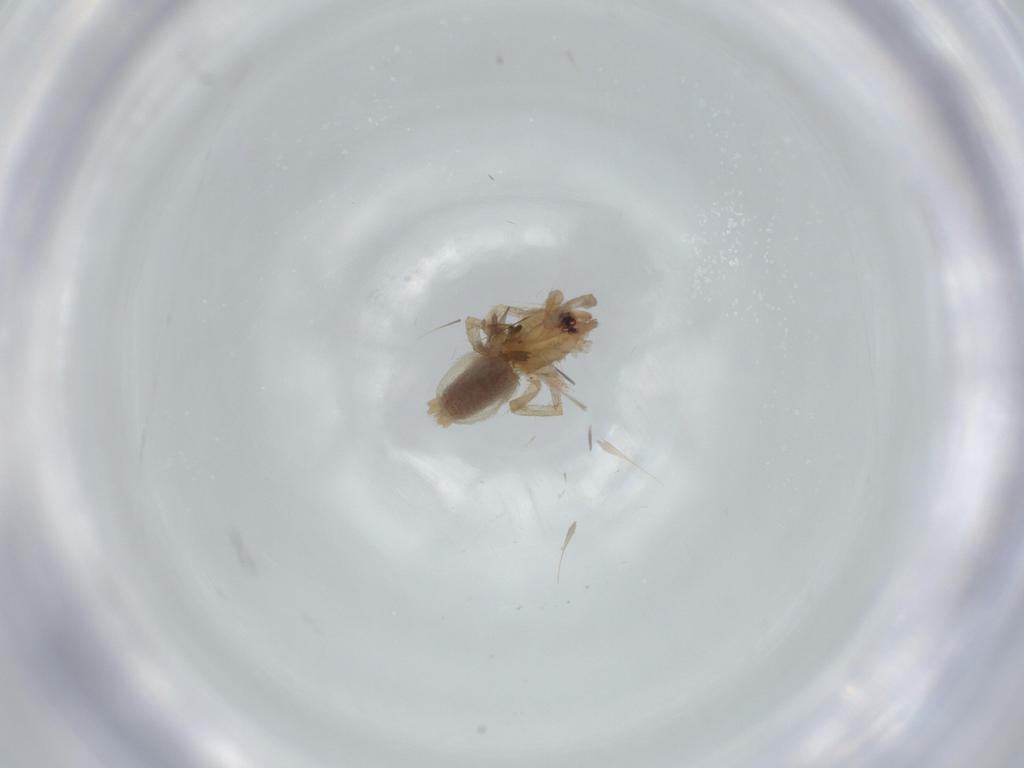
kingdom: Animalia
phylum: Arthropoda
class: Arachnida
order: Araneae
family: Gnaphosidae
